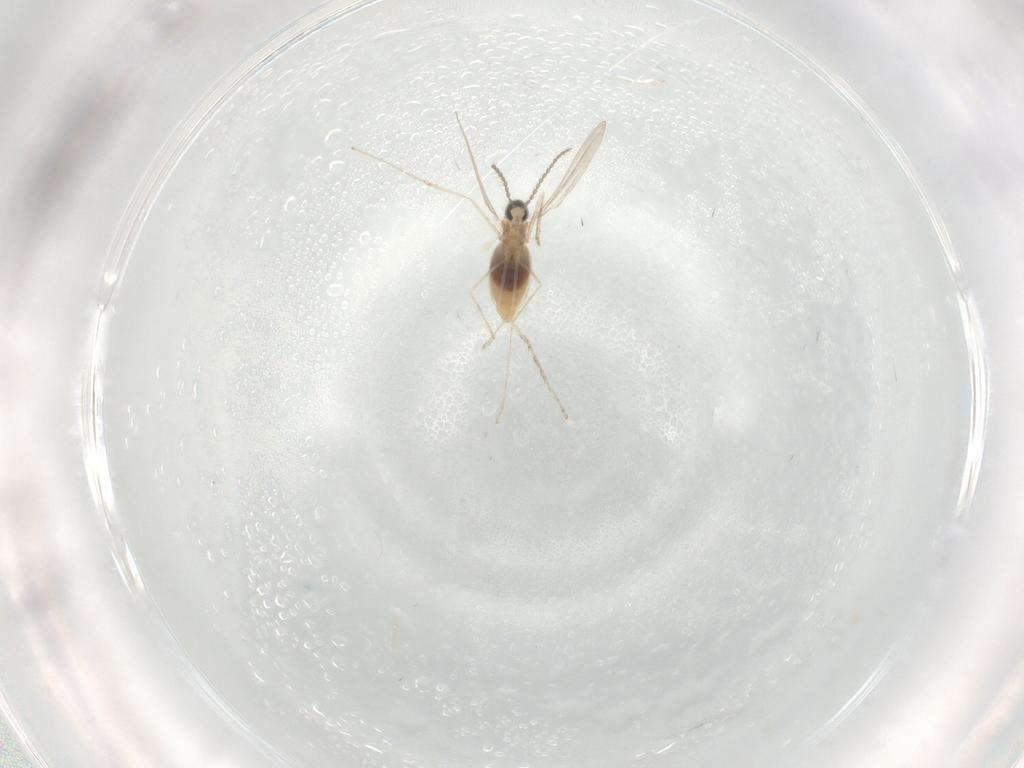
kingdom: Animalia
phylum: Arthropoda
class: Insecta
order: Diptera
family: Cecidomyiidae
